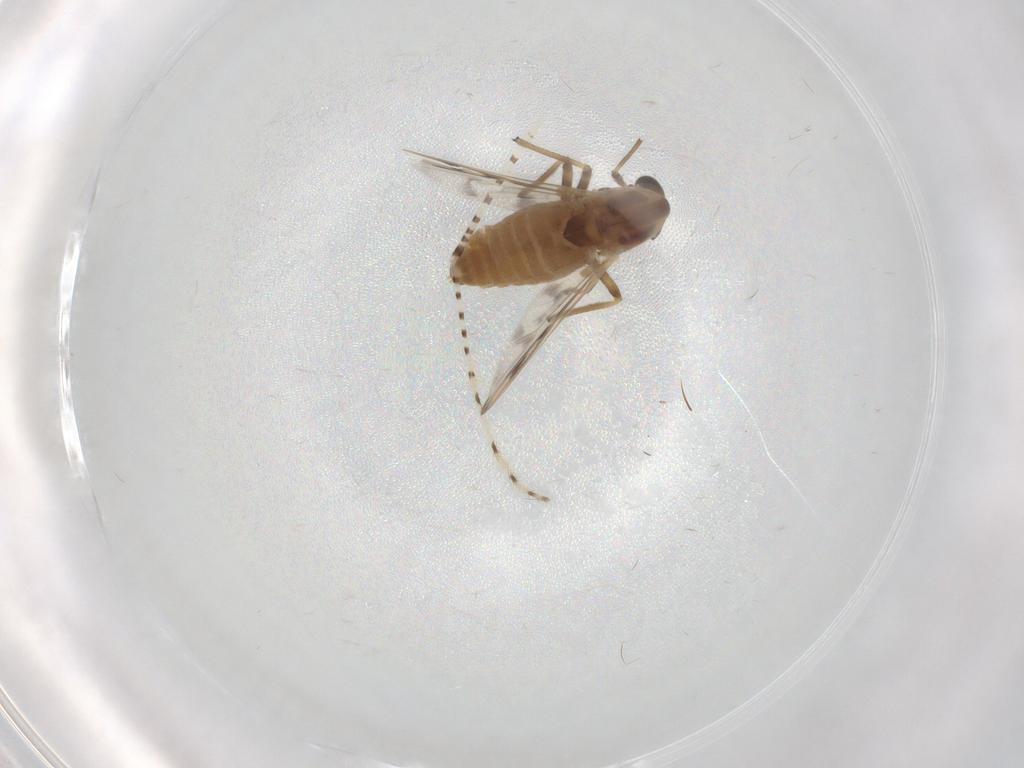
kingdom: Animalia
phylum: Arthropoda
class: Insecta
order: Diptera
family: Chironomidae
